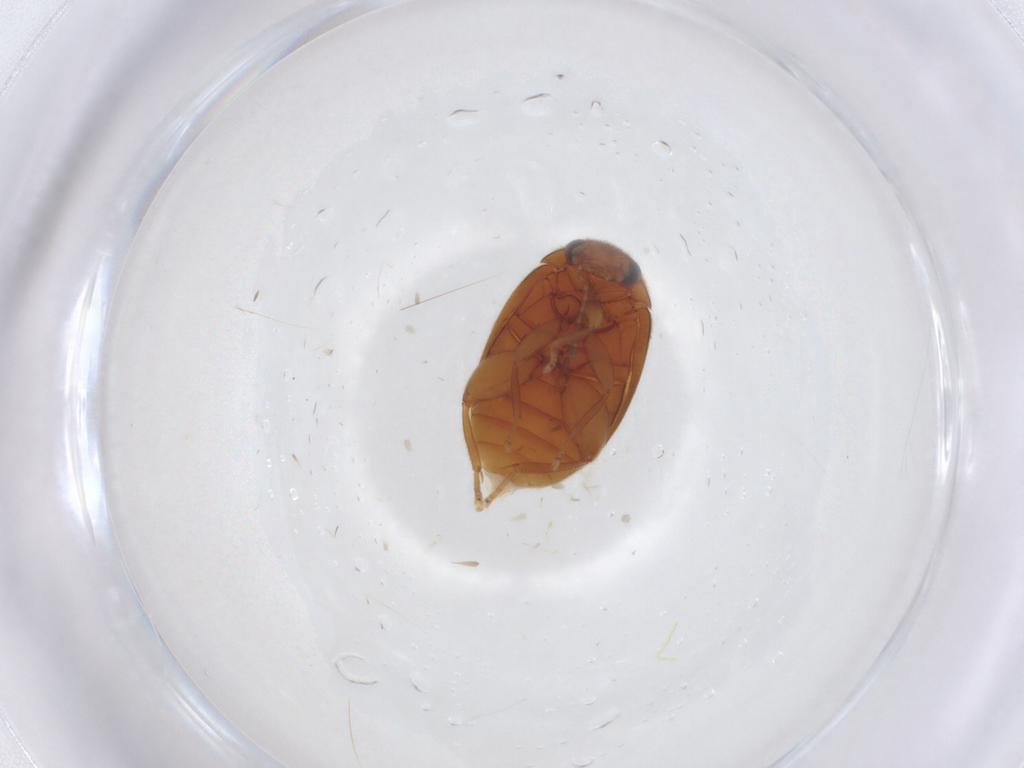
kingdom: Animalia
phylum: Arthropoda
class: Insecta
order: Coleoptera
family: Scirtidae
